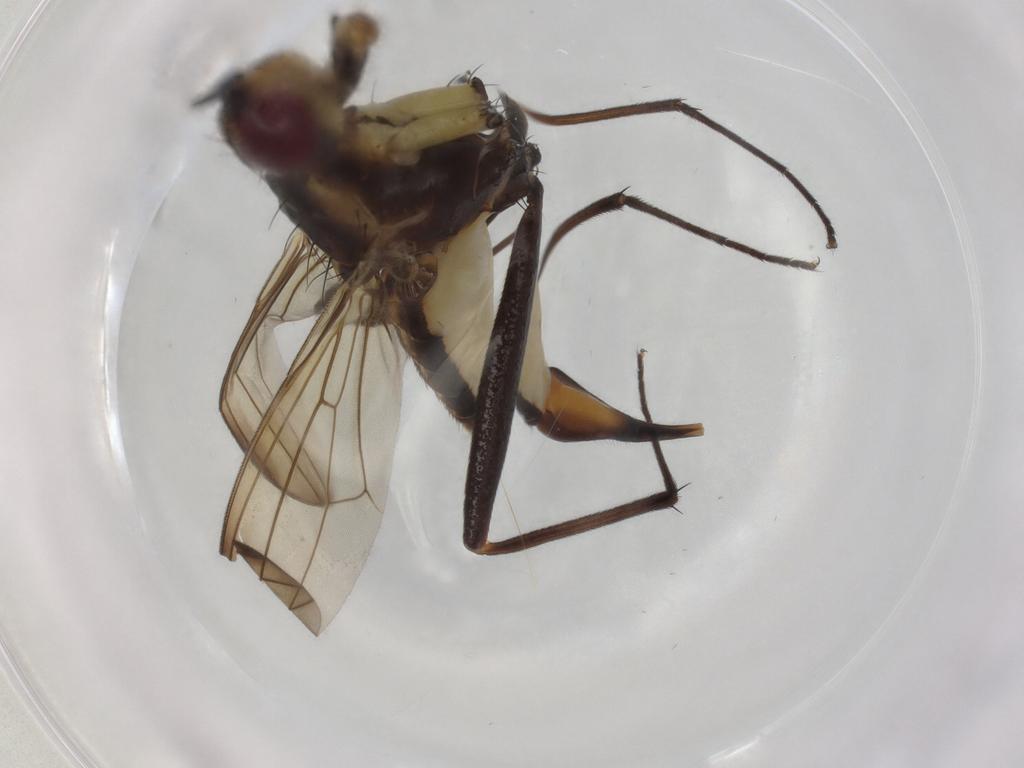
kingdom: Animalia
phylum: Arthropoda
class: Insecta
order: Diptera
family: Neriidae
